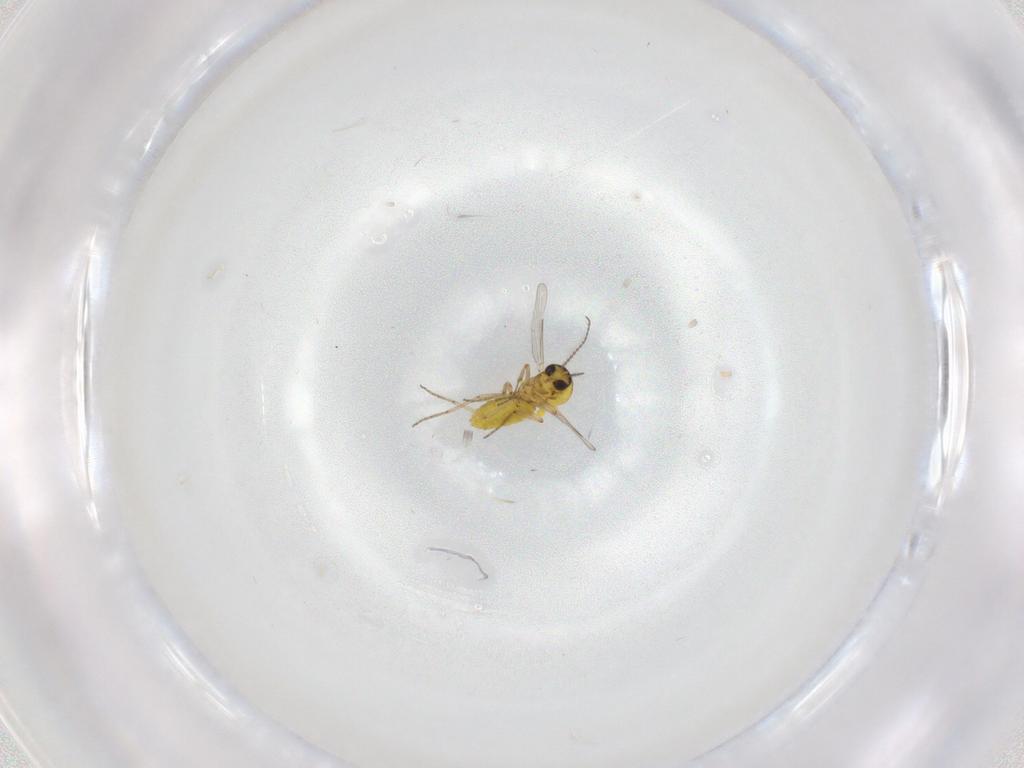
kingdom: Animalia
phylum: Arthropoda
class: Insecta
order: Diptera
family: Ceratopogonidae
